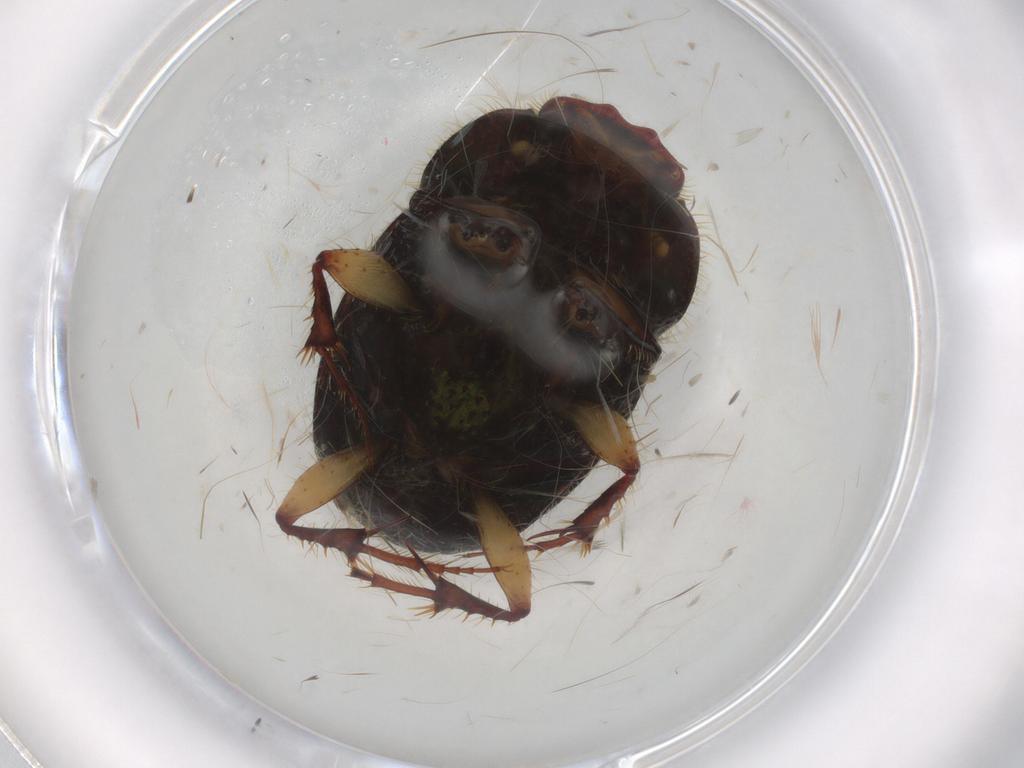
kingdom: Animalia
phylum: Arthropoda
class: Insecta
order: Coleoptera
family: Scarabaeidae
